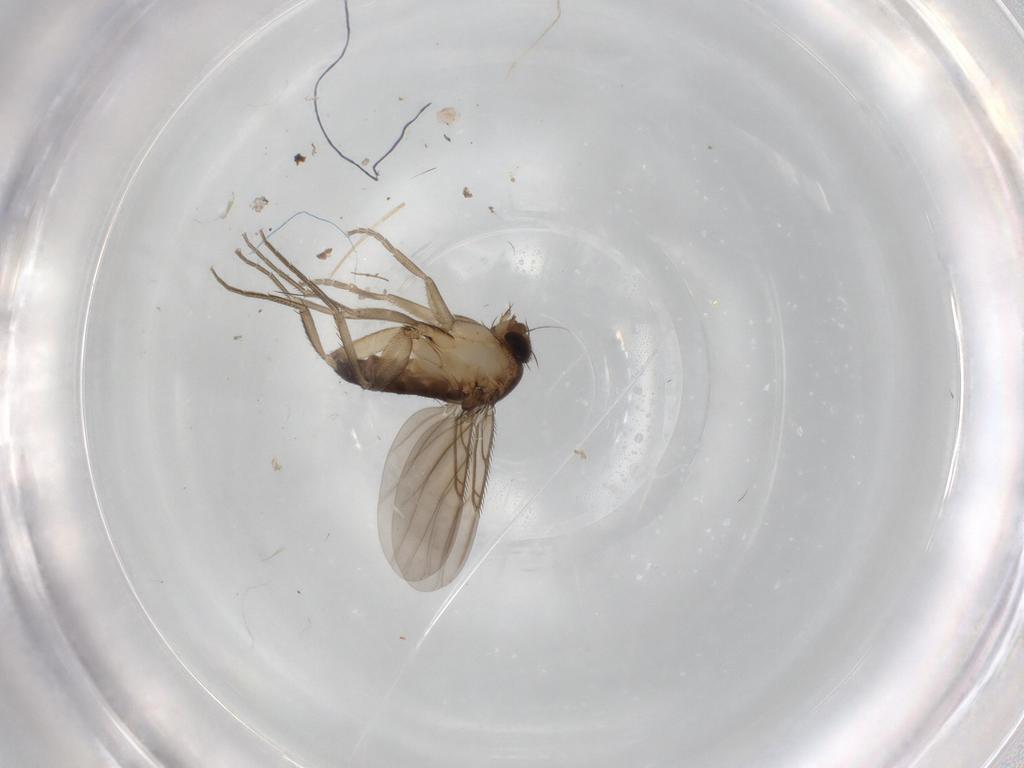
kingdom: Animalia
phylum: Arthropoda
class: Insecta
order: Diptera
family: Phoridae
